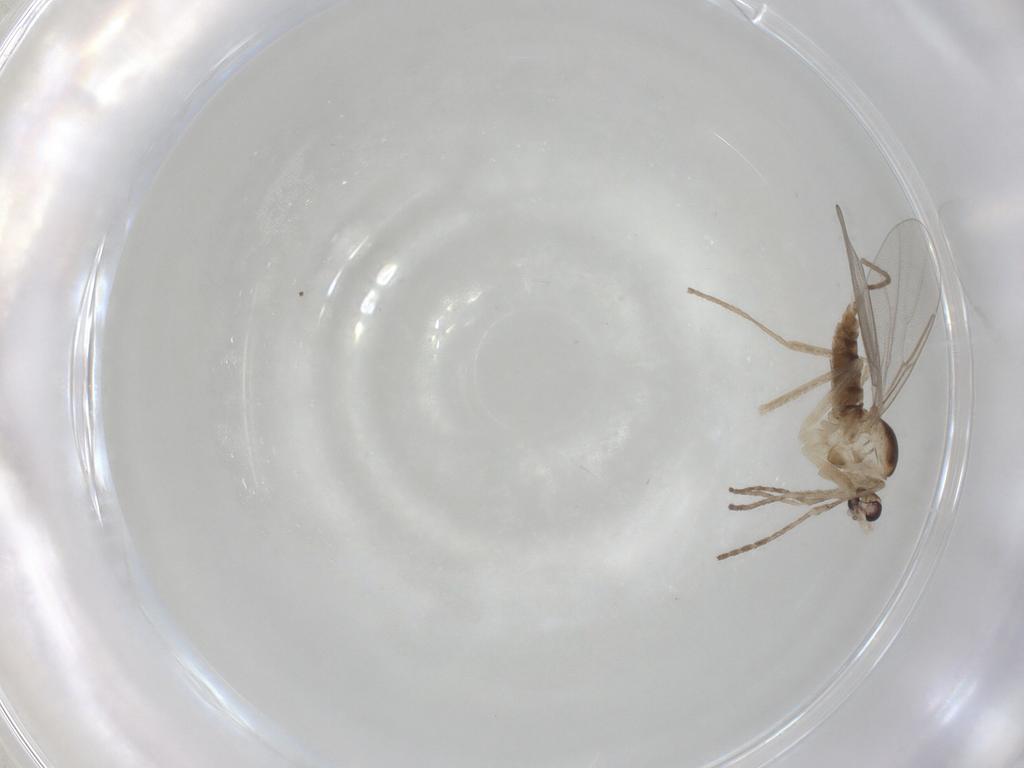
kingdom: Animalia
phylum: Arthropoda
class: Insecta
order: Diptera
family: Cecidomyiidae
